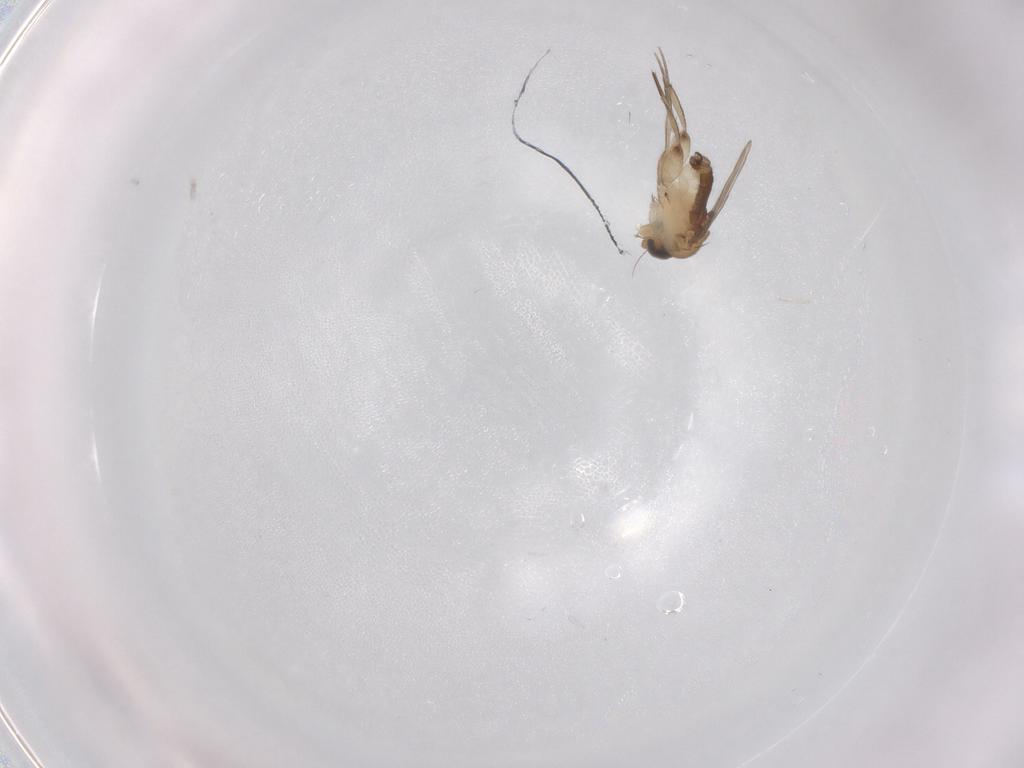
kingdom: Animalia
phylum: Arthropoda
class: Insecta
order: Diptera
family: Phoridae
